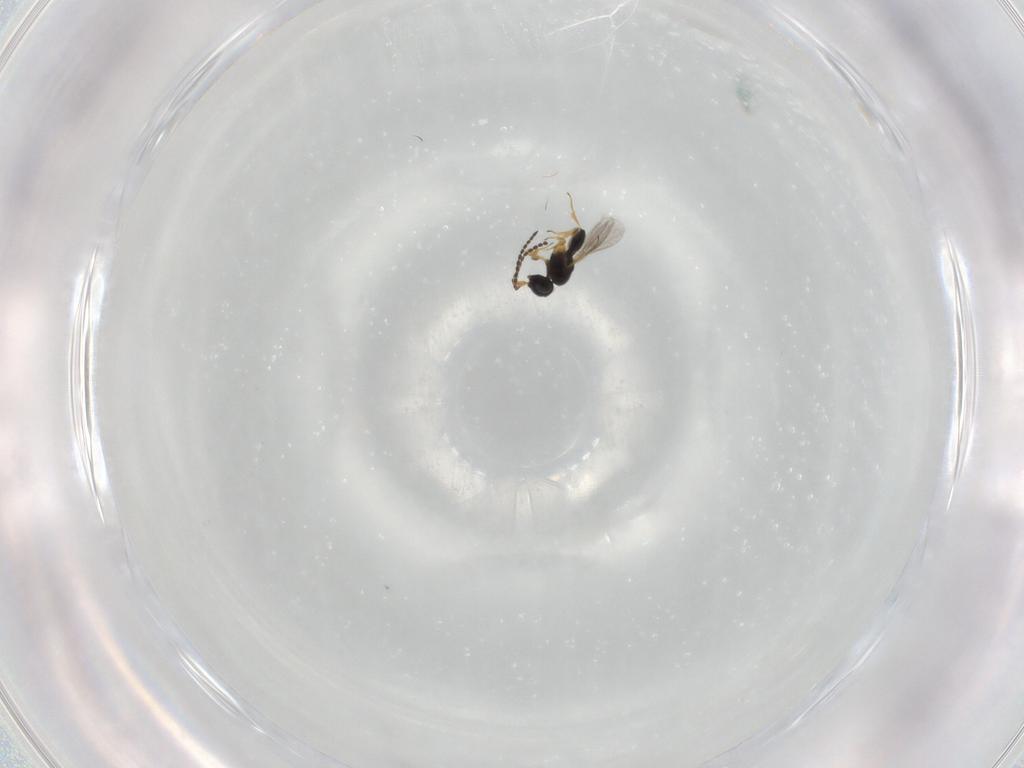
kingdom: Animalia
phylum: Arthropoda
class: Insecta
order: Hymenoptera
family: Scelionidae
